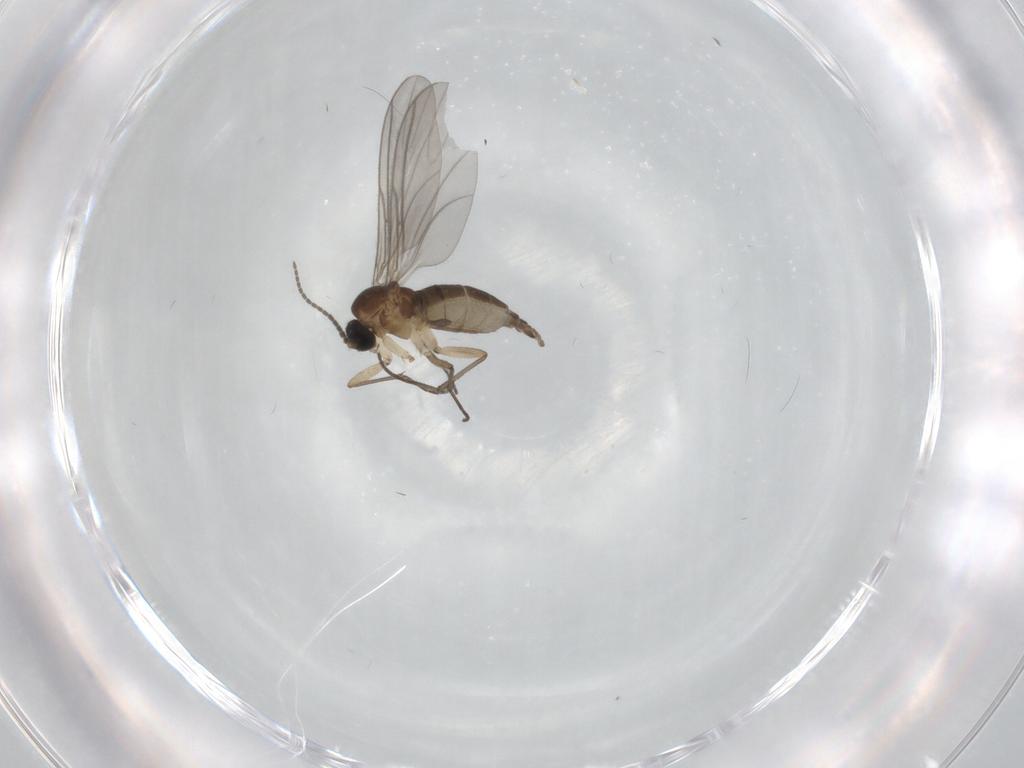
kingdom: Animalia
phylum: Arthropoda
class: Insecta
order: Diptera
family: Sciaridae
